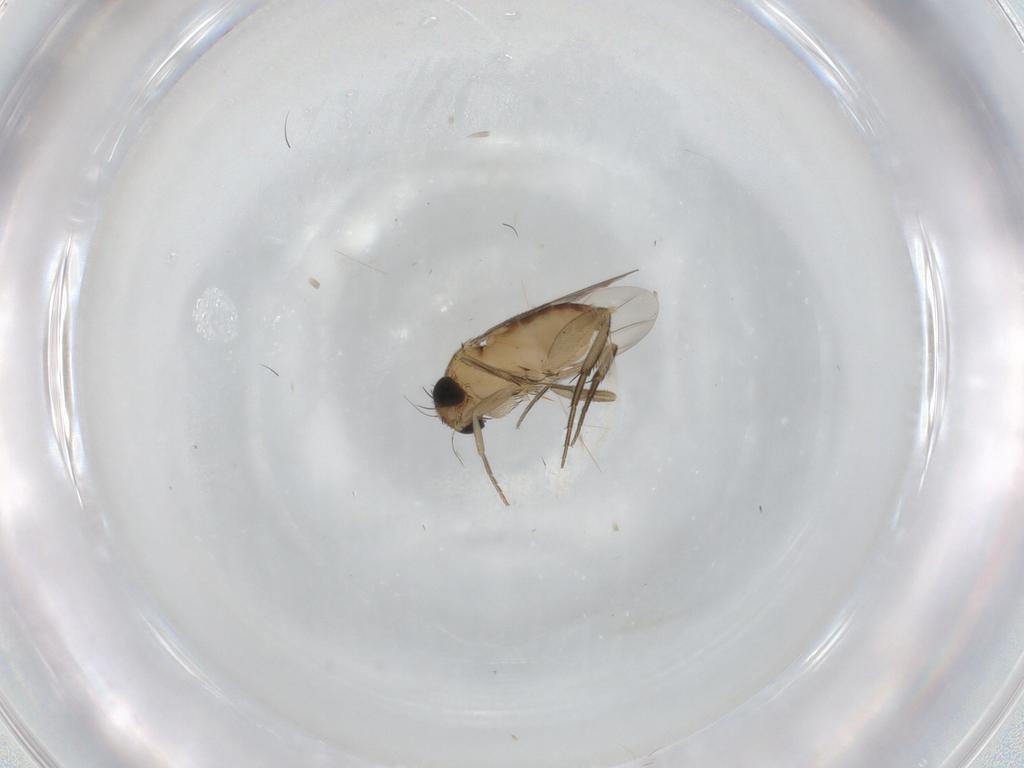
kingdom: Animalia
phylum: Arthropoda
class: Insecta
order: Diptera
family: Phoridae
